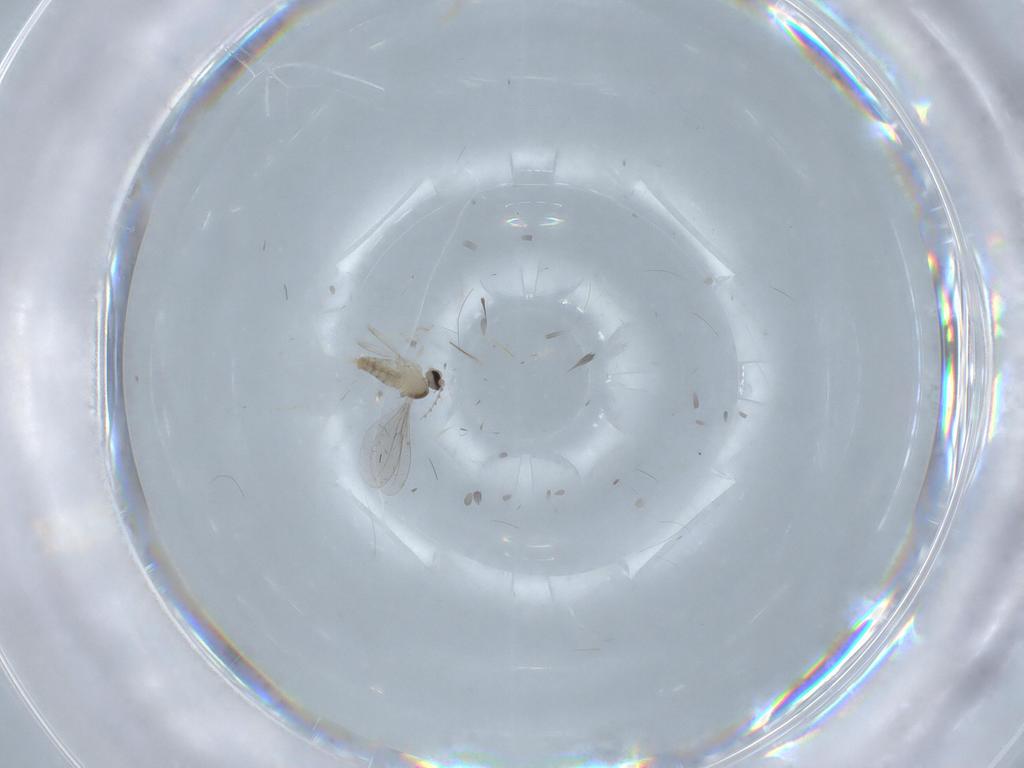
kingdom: Animalia
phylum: Arthropoda
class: Insecta
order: Diptera
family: Cecidomyiidae
